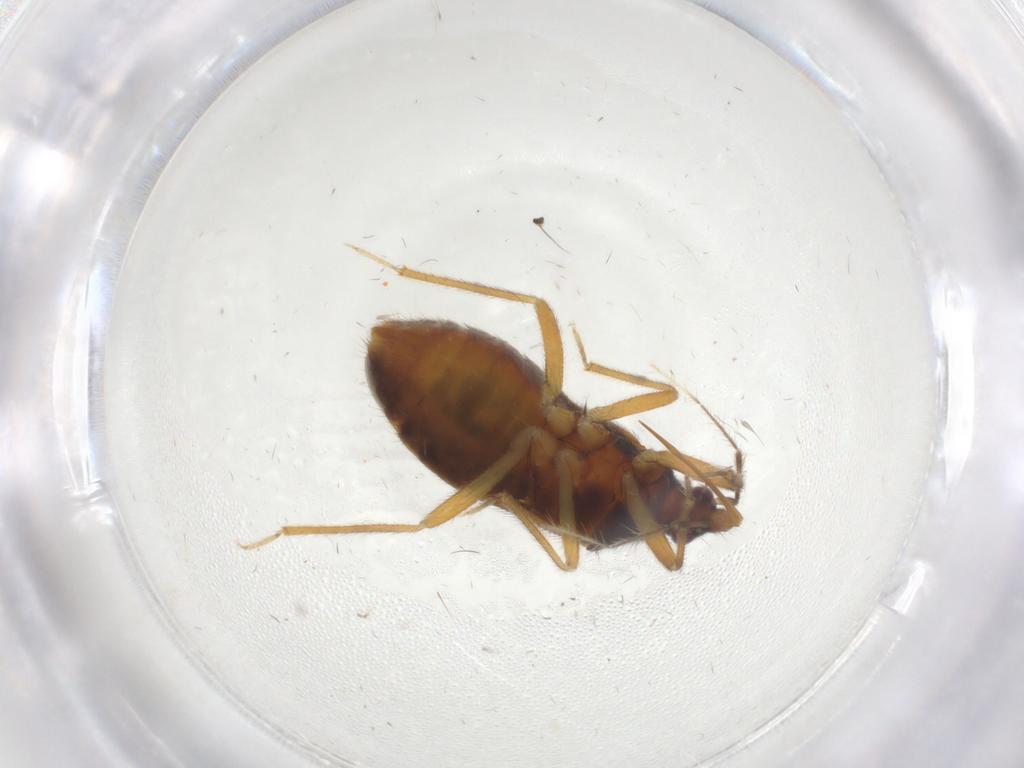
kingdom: Animalia
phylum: Arthropoda
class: Insecta
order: Hemiptera
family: Anthocoridae
